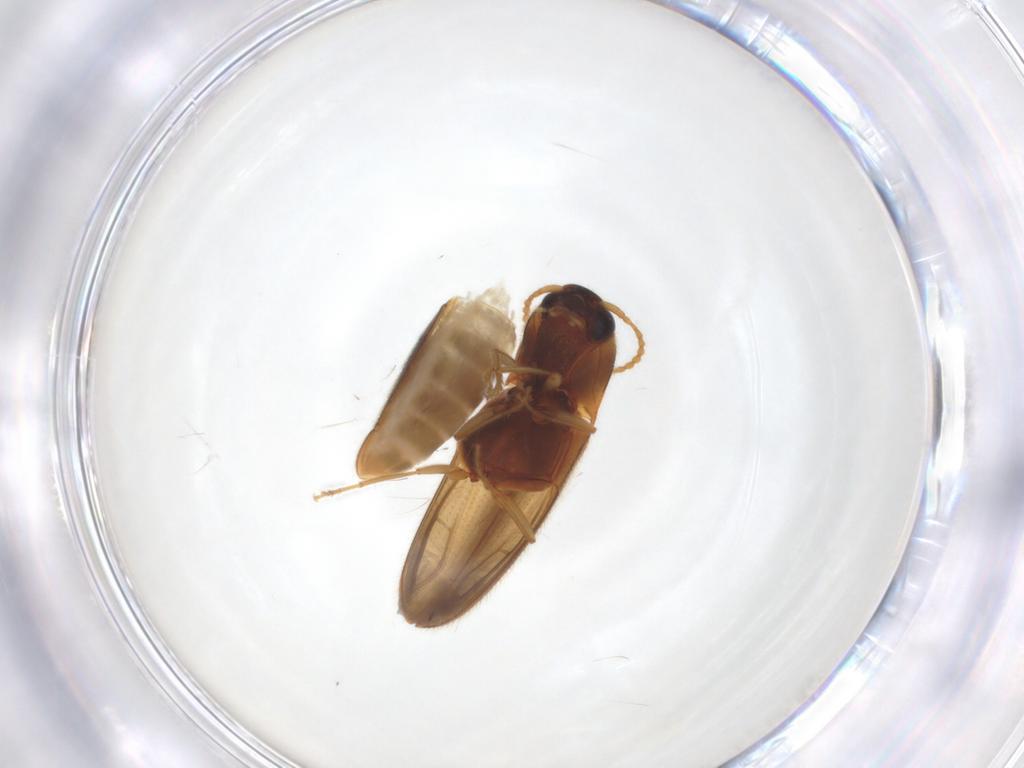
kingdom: Animalia
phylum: Arthropoda
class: Insecta
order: Coleoptera
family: Elateridae
